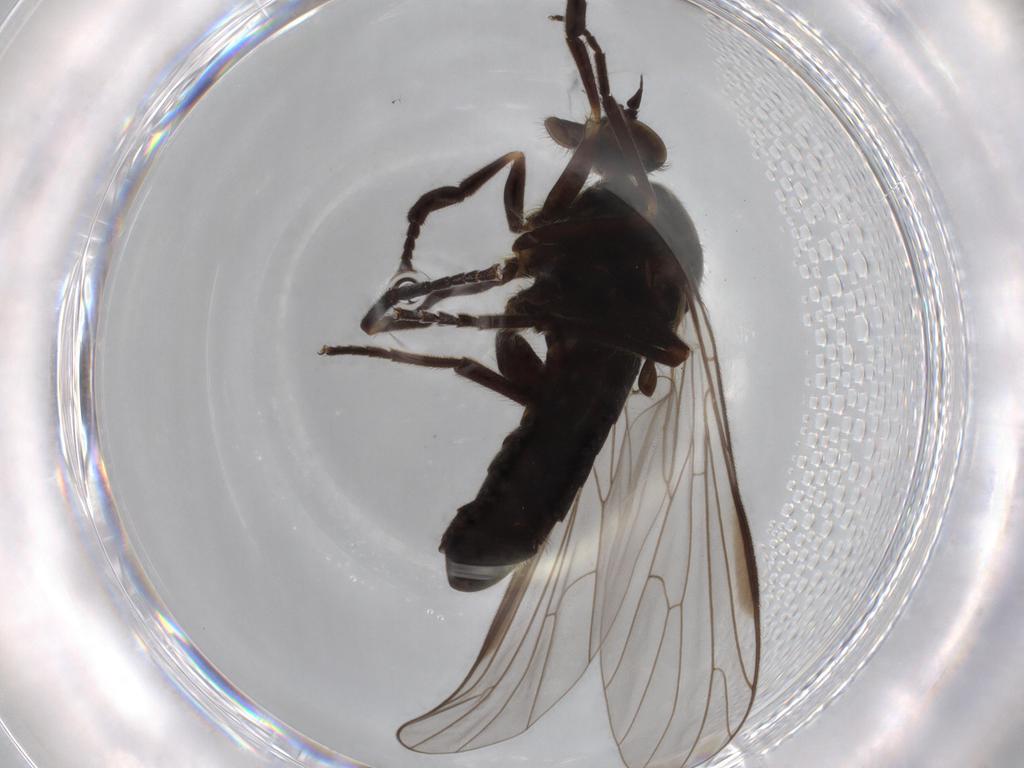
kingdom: Animalia
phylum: Arthropoda
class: Insecta
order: Diptera
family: Empididae
